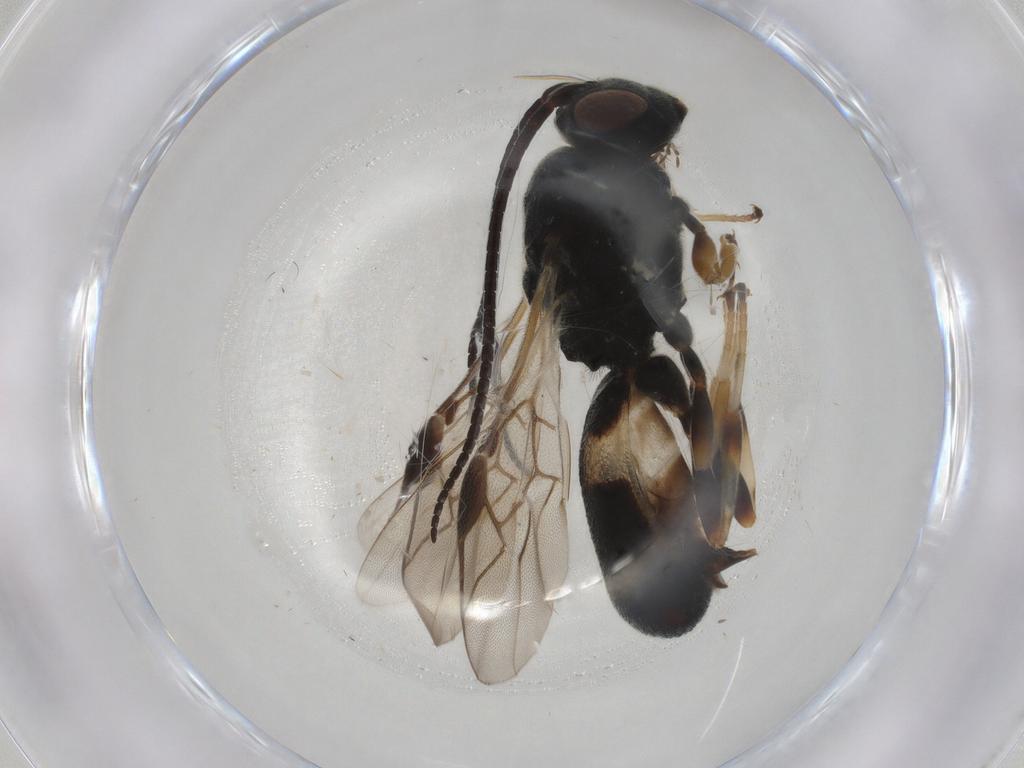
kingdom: Animalia
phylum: Arthropoda
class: Insecta
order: Hymenoptera
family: Braconidae
